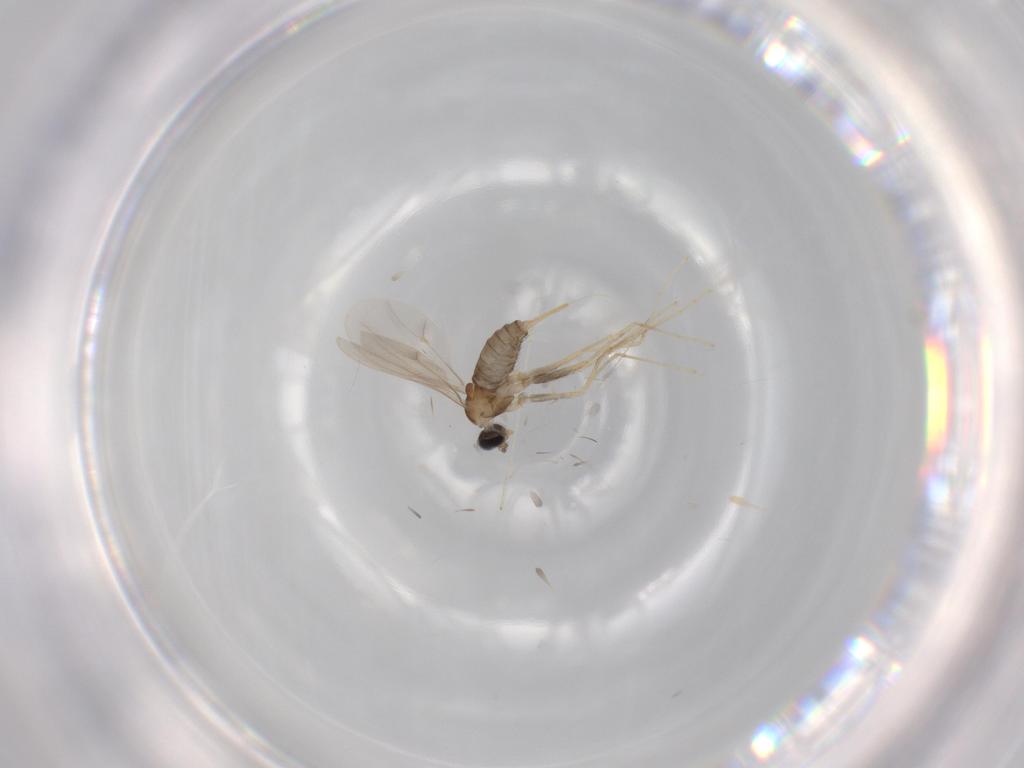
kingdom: Animalia
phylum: Arthropoda
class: Insecta
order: Diptera
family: Cecidomyiidae
